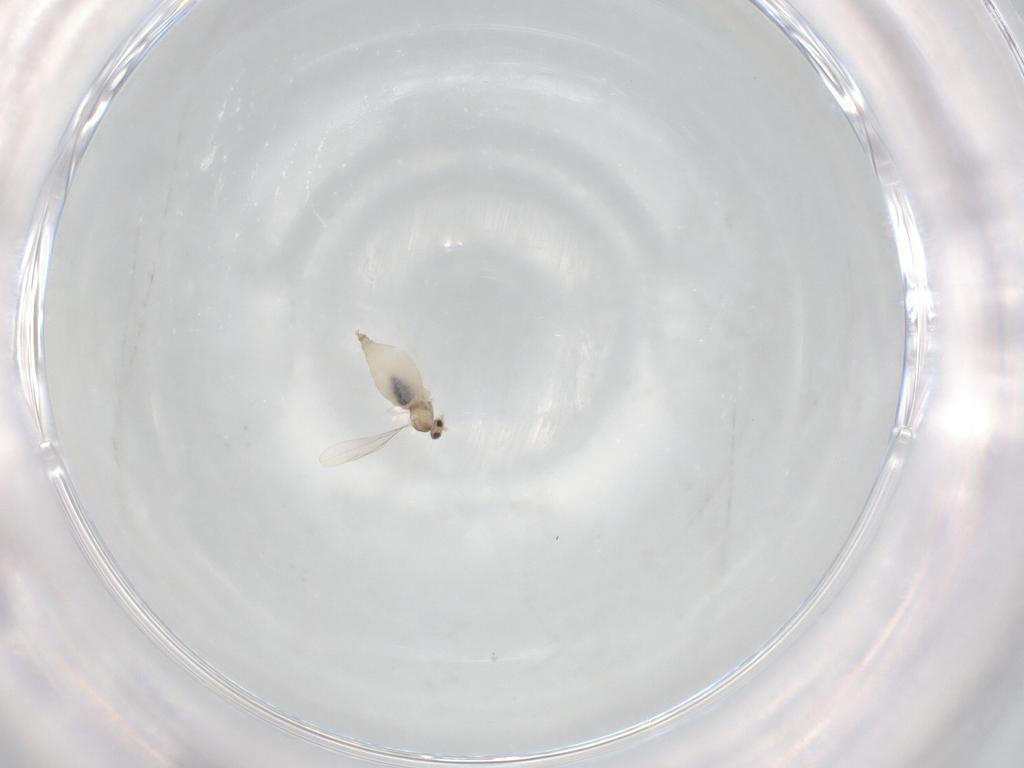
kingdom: Animalia
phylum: Arthropoda
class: Insecta
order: Diptera
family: Cecidomyiidae
